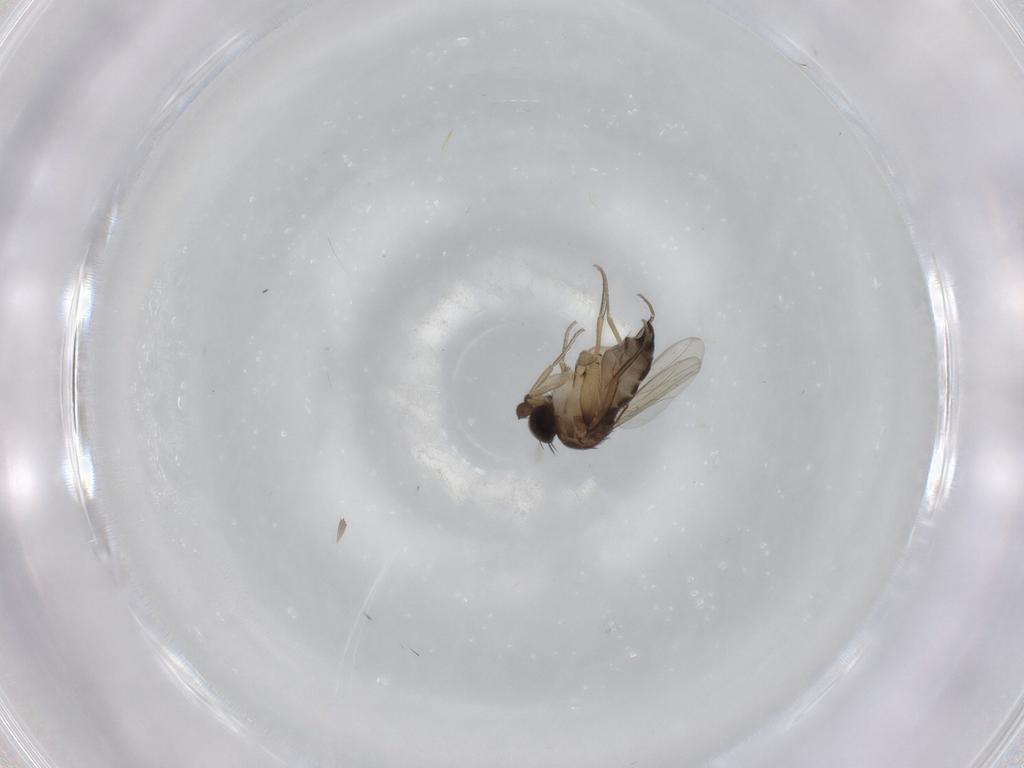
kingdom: Animalia
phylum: Arthropoda
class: Insecta
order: Diptera
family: Phoridae
